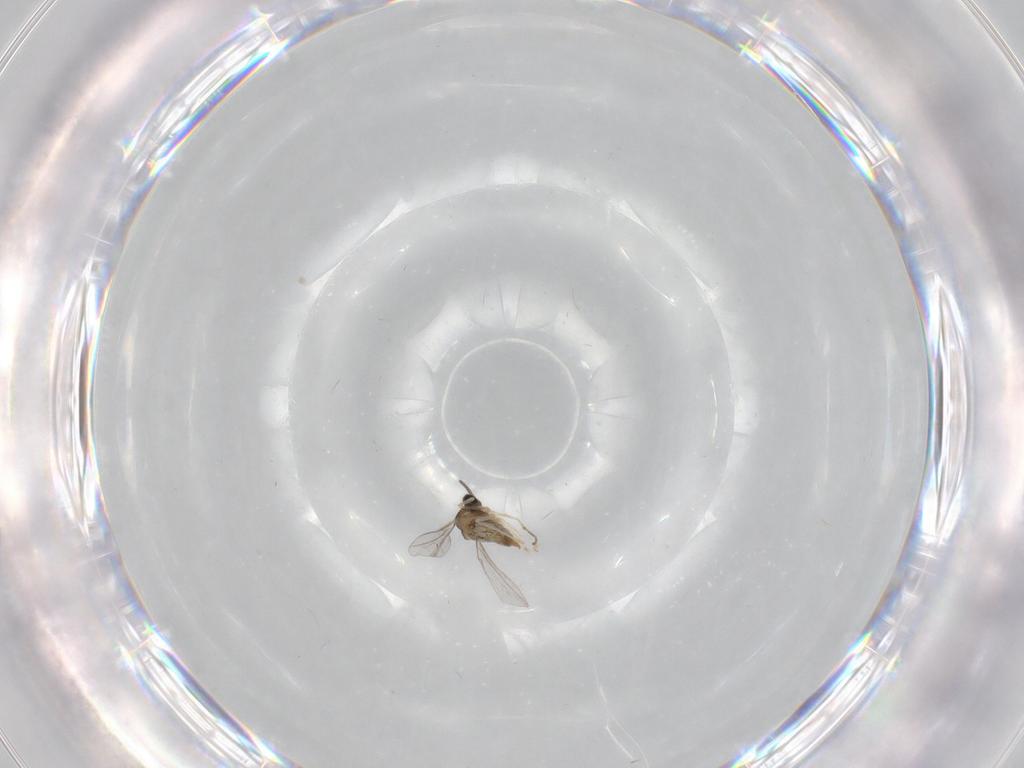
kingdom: Animalia
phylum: Arthropoda
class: Insecta
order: Diptera
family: Cecidomyiidae
